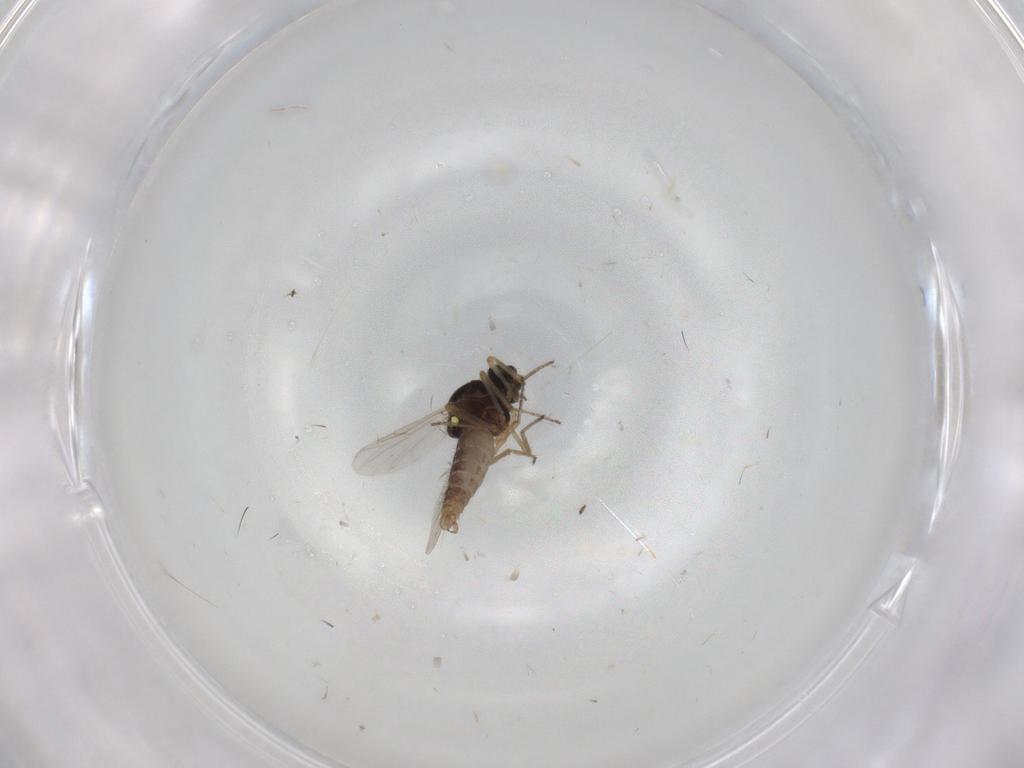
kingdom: Animalia
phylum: Arthropoda
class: Insecta
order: Diptera
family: Ceratopogonidae
